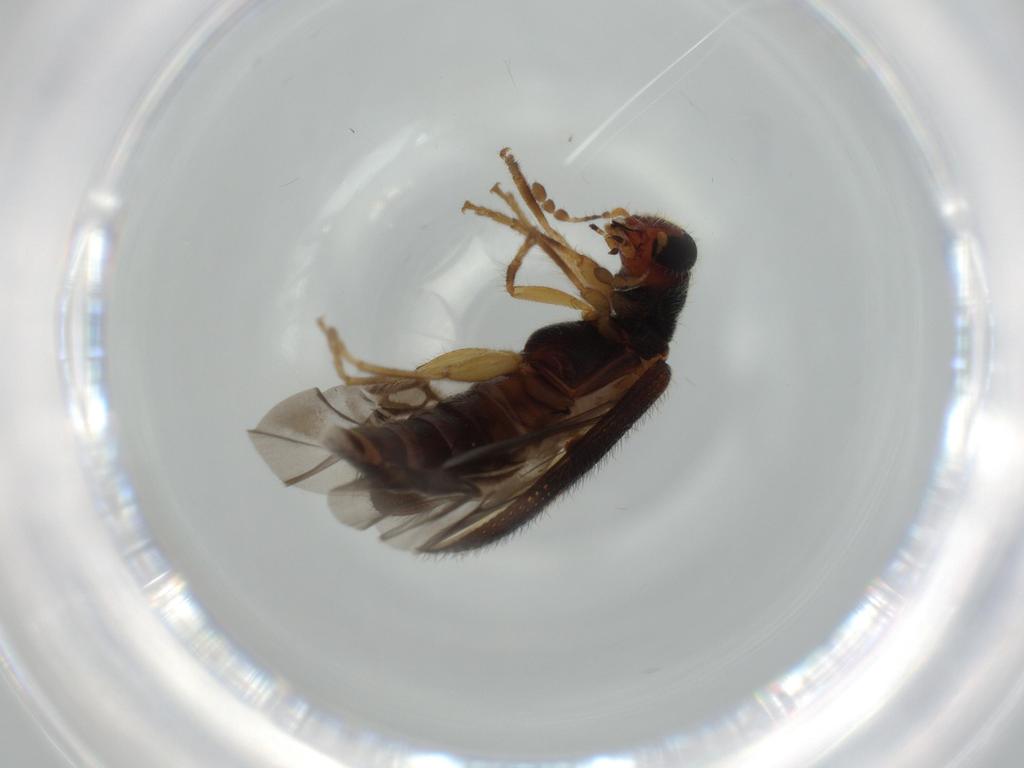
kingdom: Animalia
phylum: Arthropoda
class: Insecta
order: Coleoptera
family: Cleridae
